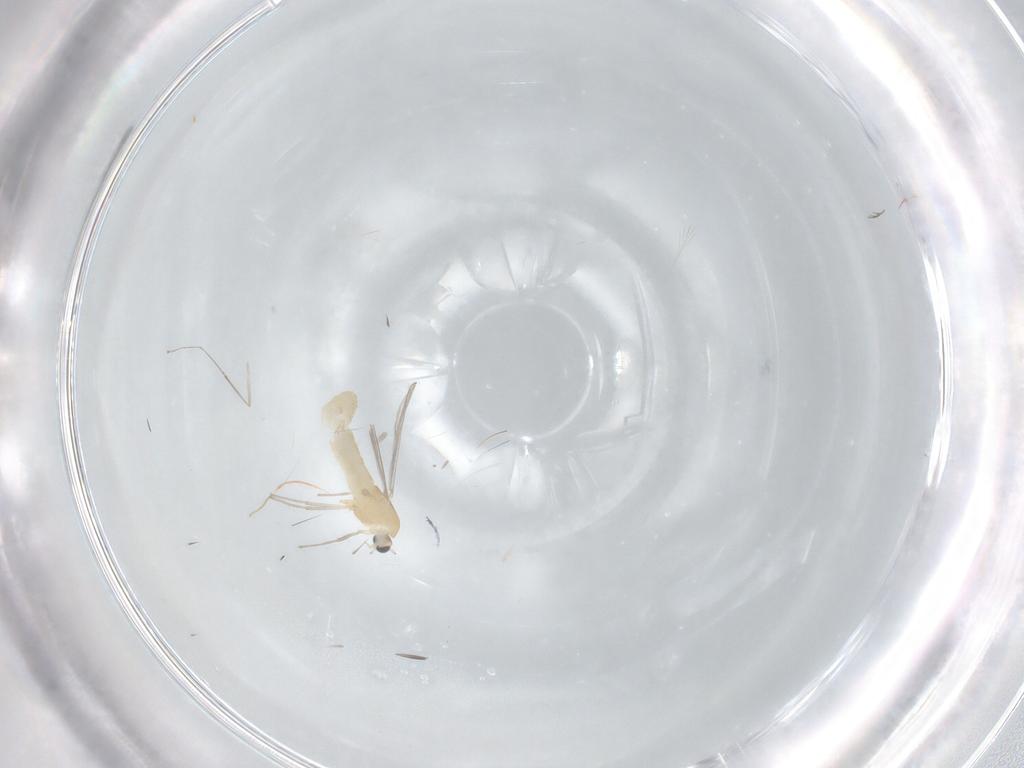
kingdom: Animalia
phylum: Arthropoda
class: Insecta
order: Diptera
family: Chironomidae
